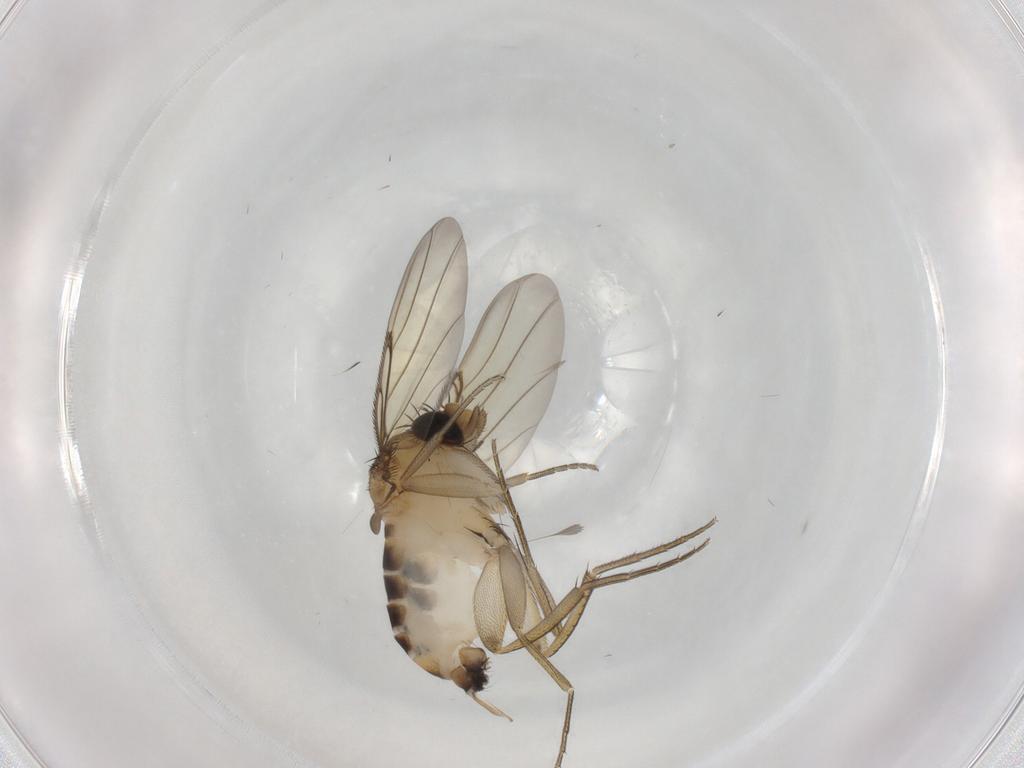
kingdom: Animalia
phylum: Arthropoda
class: Insecta
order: Diptera
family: Phoridae
